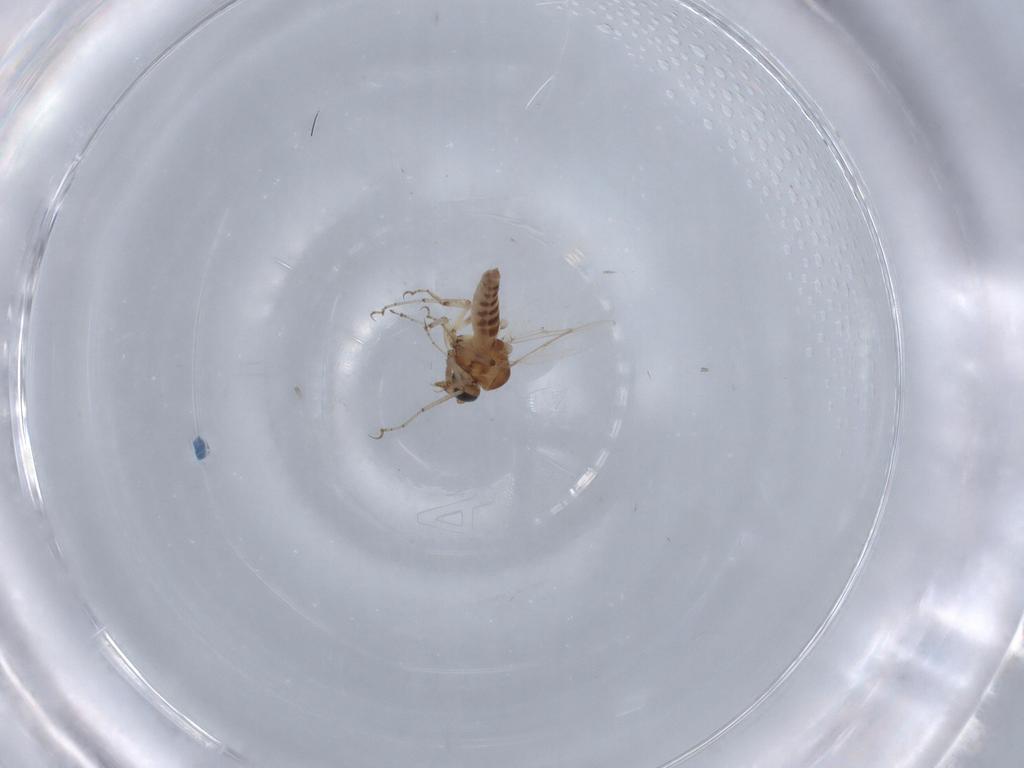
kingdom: Animalia
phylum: Arthropoda
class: Insecta
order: Diptera
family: Ceratopogonidae
